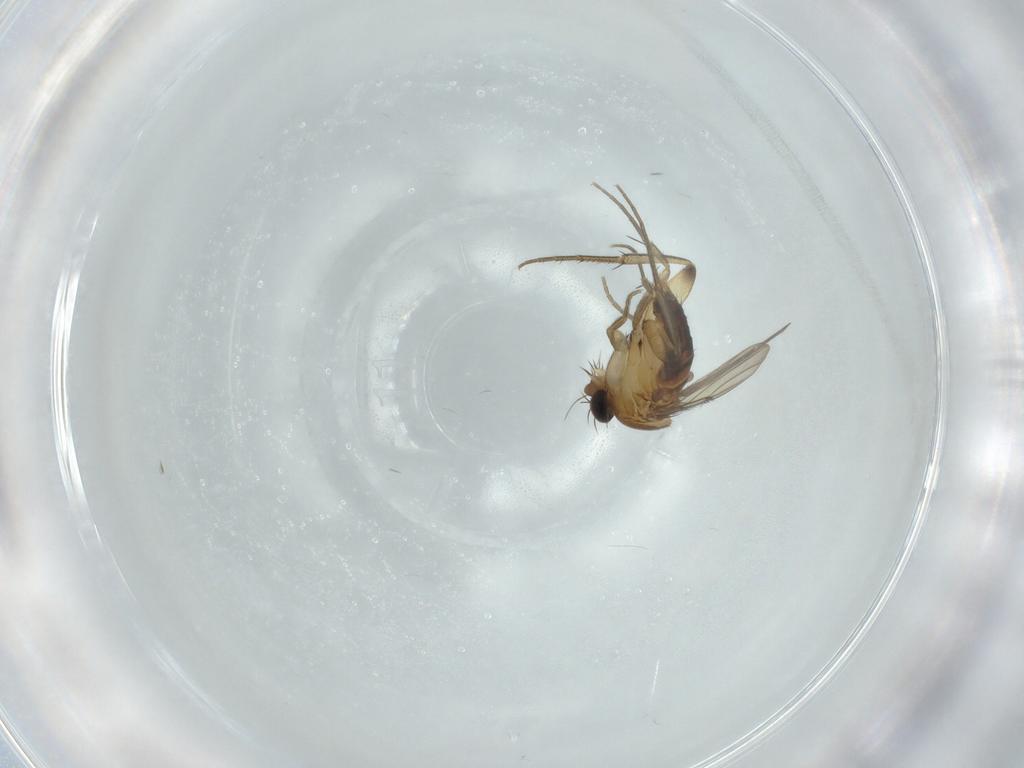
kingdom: Animalia
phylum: Arthropoda
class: Insecta
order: Diptera
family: Phoridae
